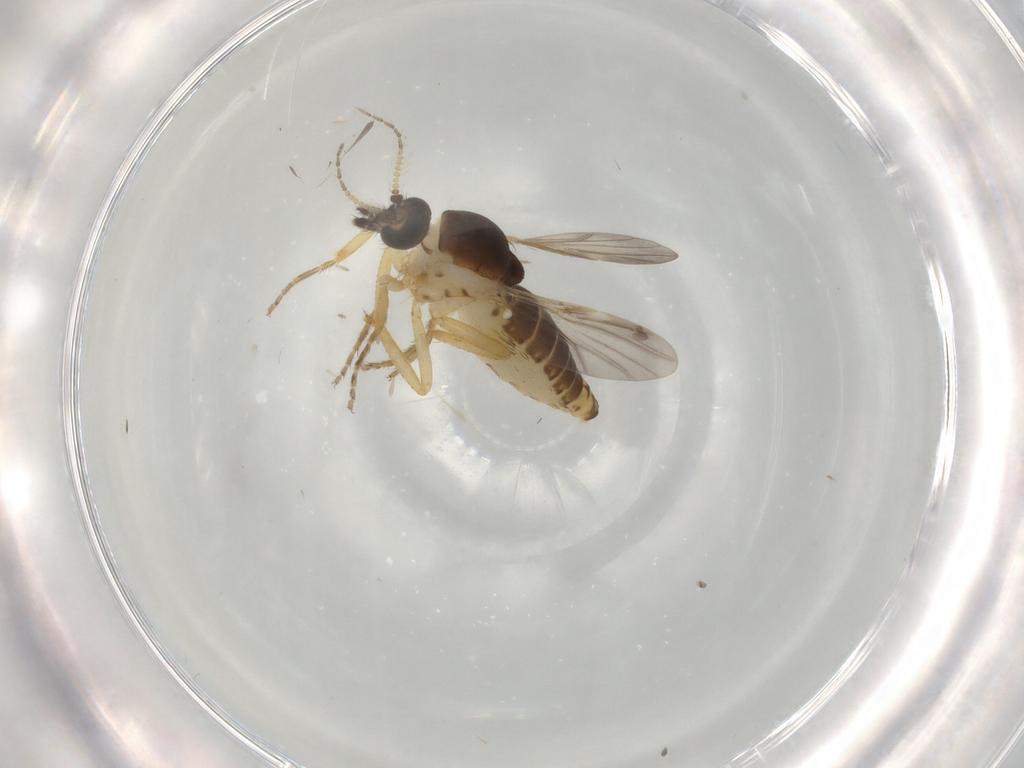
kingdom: Animalia
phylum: Arthropoda
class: Insecta
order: Diptera
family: Ceratopogonidae
